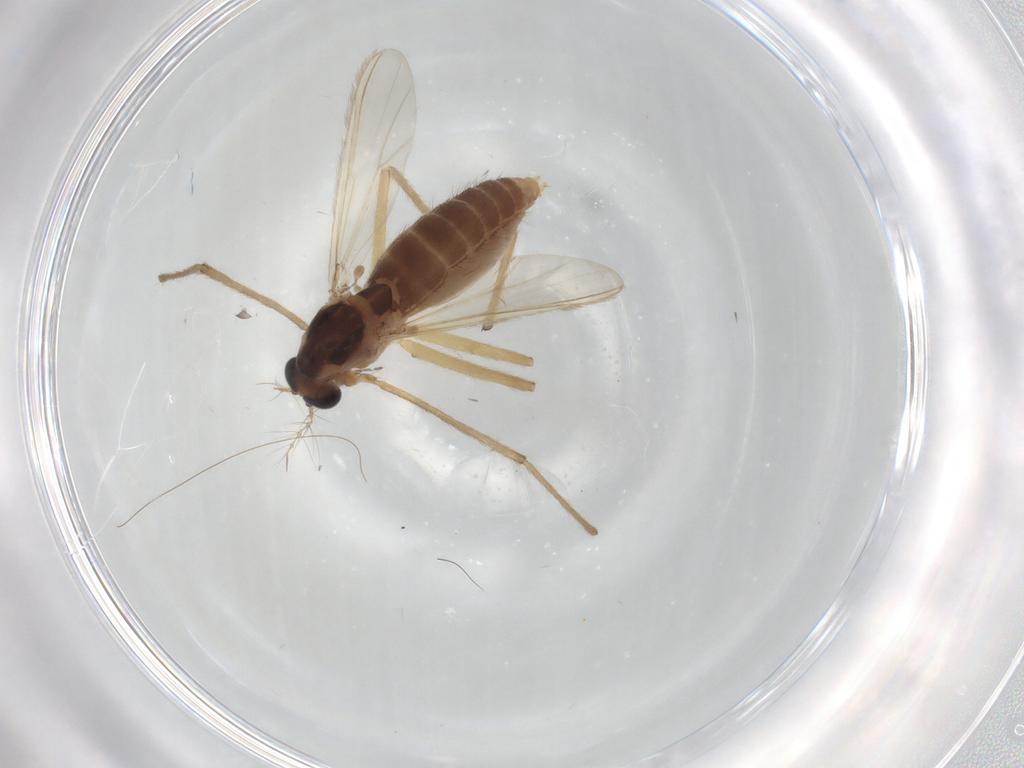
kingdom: Animalia
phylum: Arthropoda
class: Insecta
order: Diptera
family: Chironomidae
